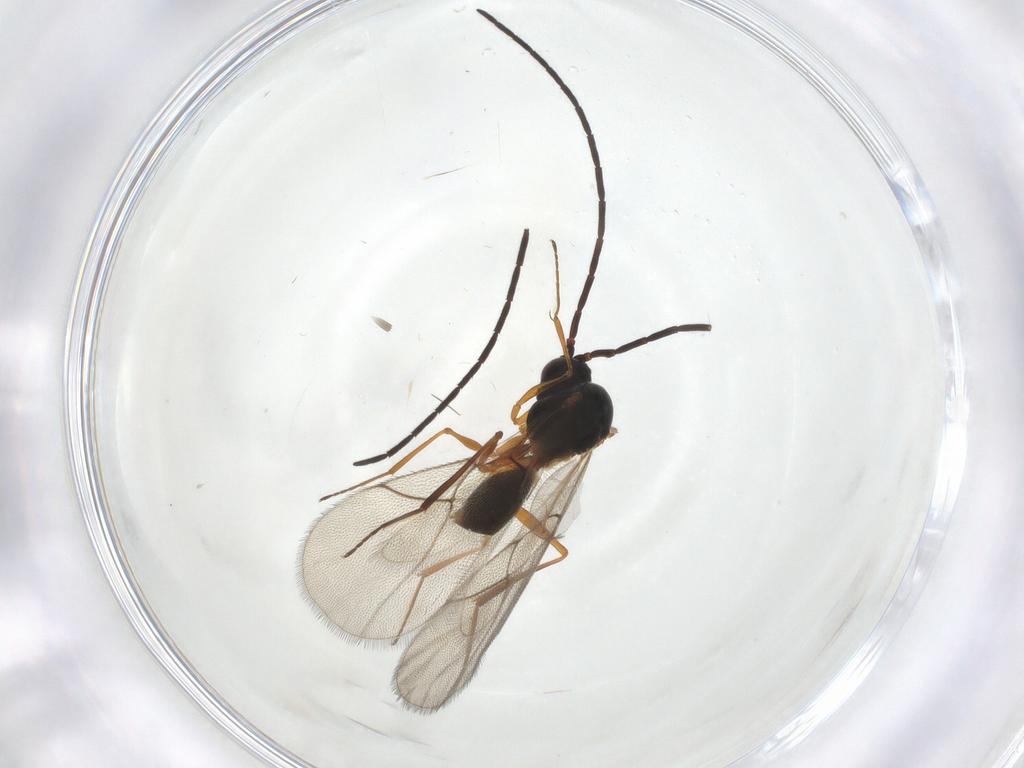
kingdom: Animalia
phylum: Arthropoda
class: Insecta
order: Hymenoptera
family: Figitidae
